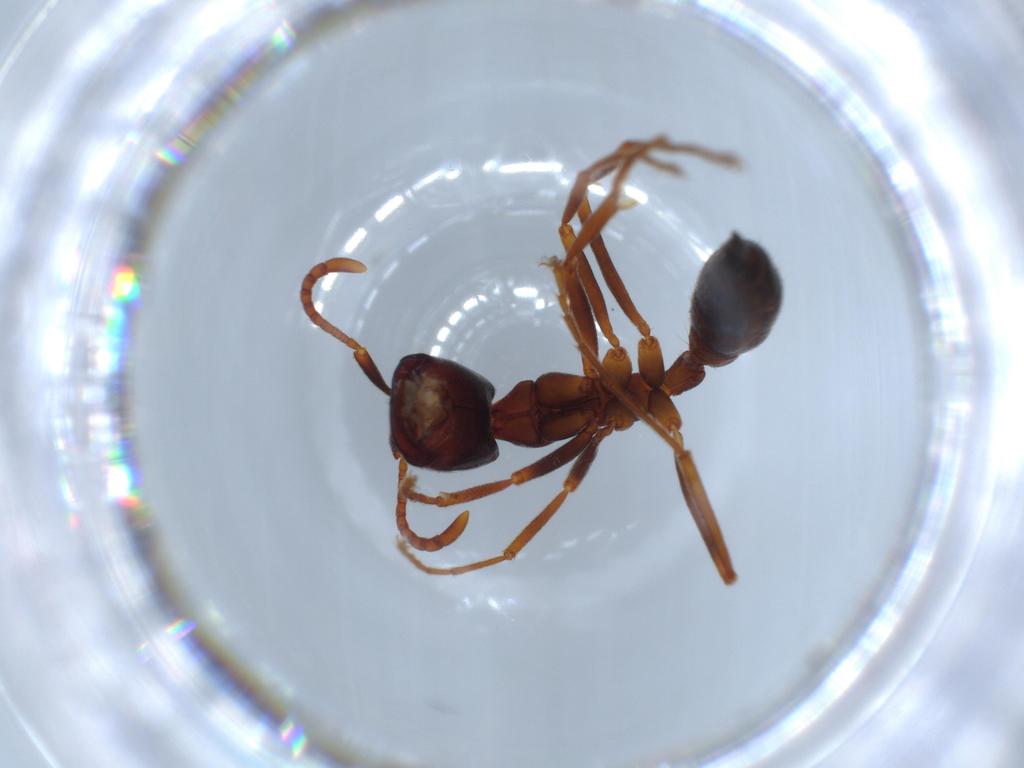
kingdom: Animalia
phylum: Arthropoda
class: Insecta
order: Hymenoptera
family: Formicidae
